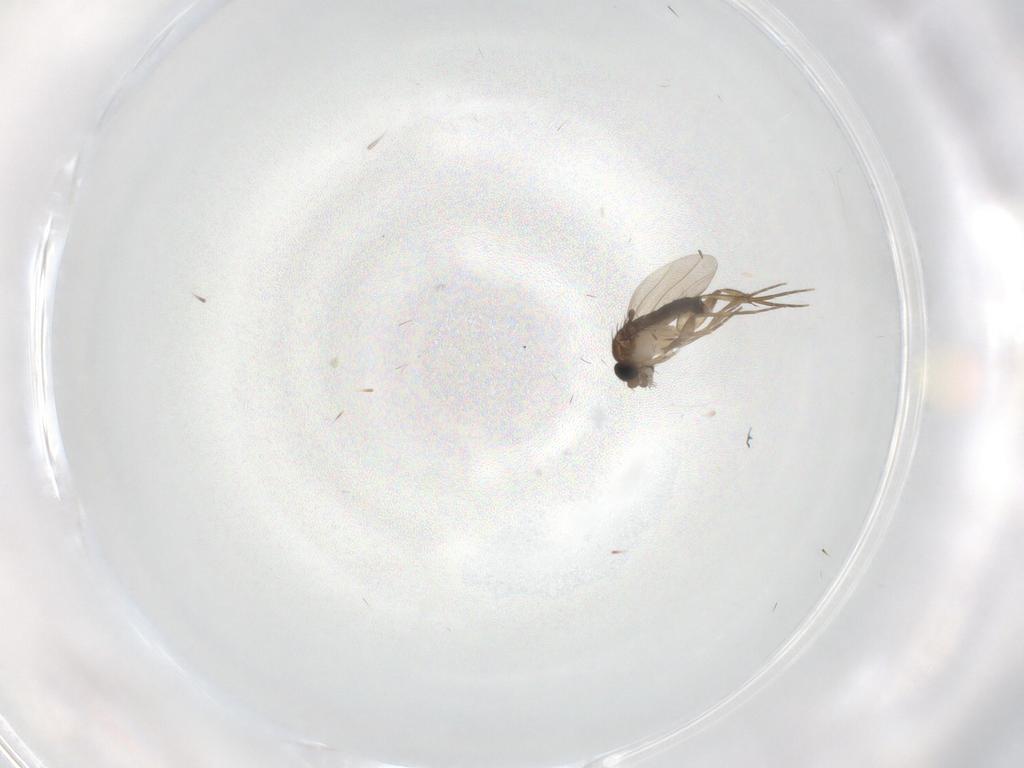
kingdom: Animalia
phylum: Arthropoda
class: Insecta
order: Diptera
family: Phoridae
